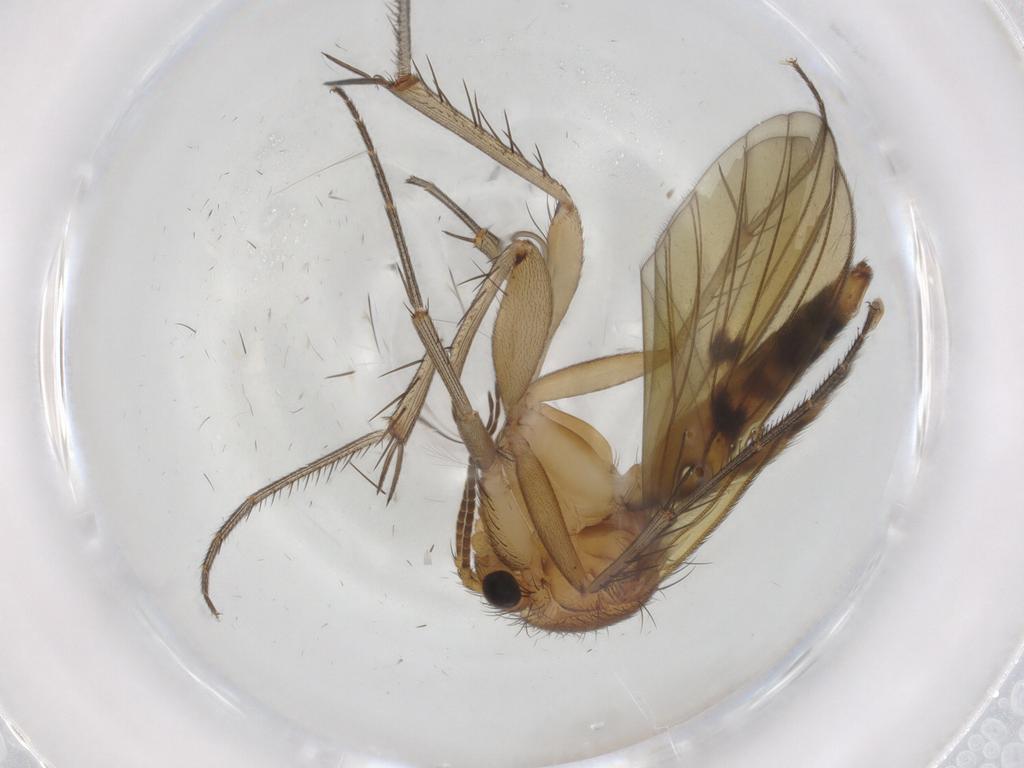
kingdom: Animalia
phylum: Arthropoda
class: Insecta
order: Diptera
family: Chironomidae
